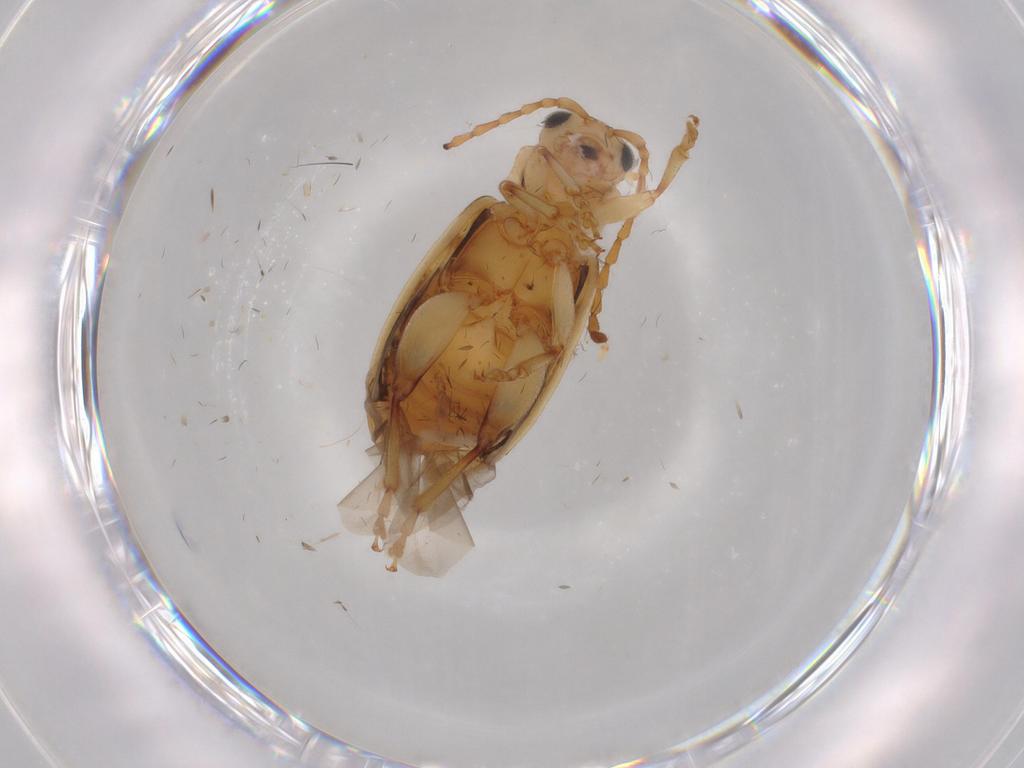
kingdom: Animalia
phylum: Arthropoda
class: Insecta
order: Coleoptera
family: Chrysomelidae
